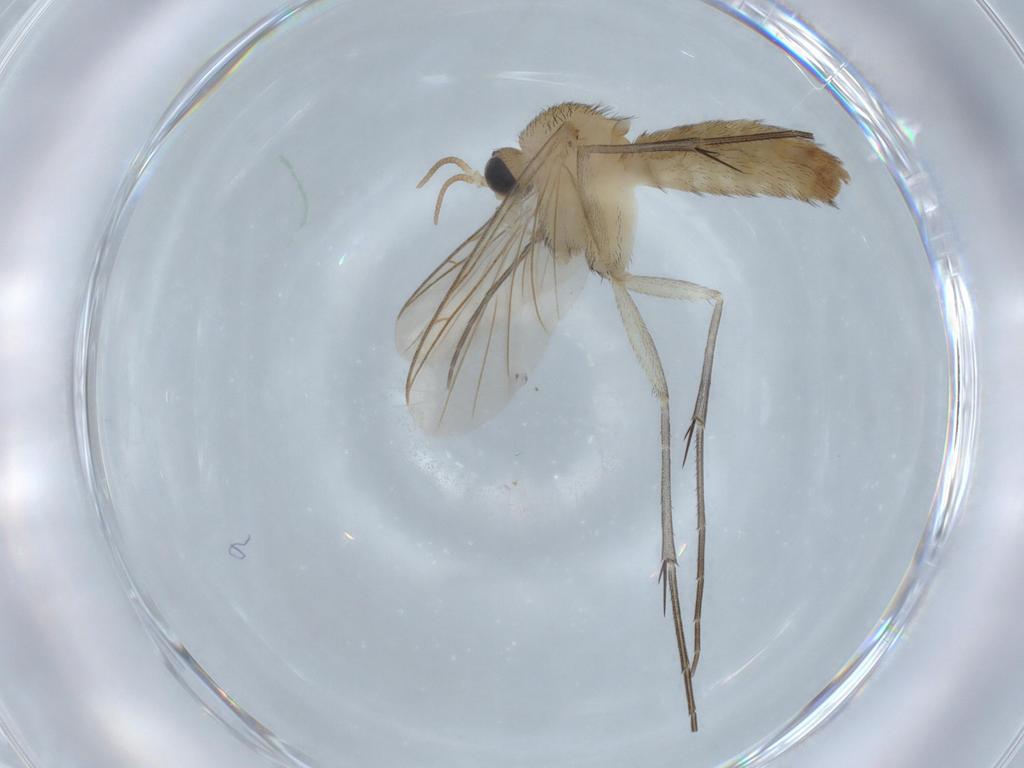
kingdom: Animalia
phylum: Arthropoda
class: Insecta
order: Diptera
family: Keroplatidae
